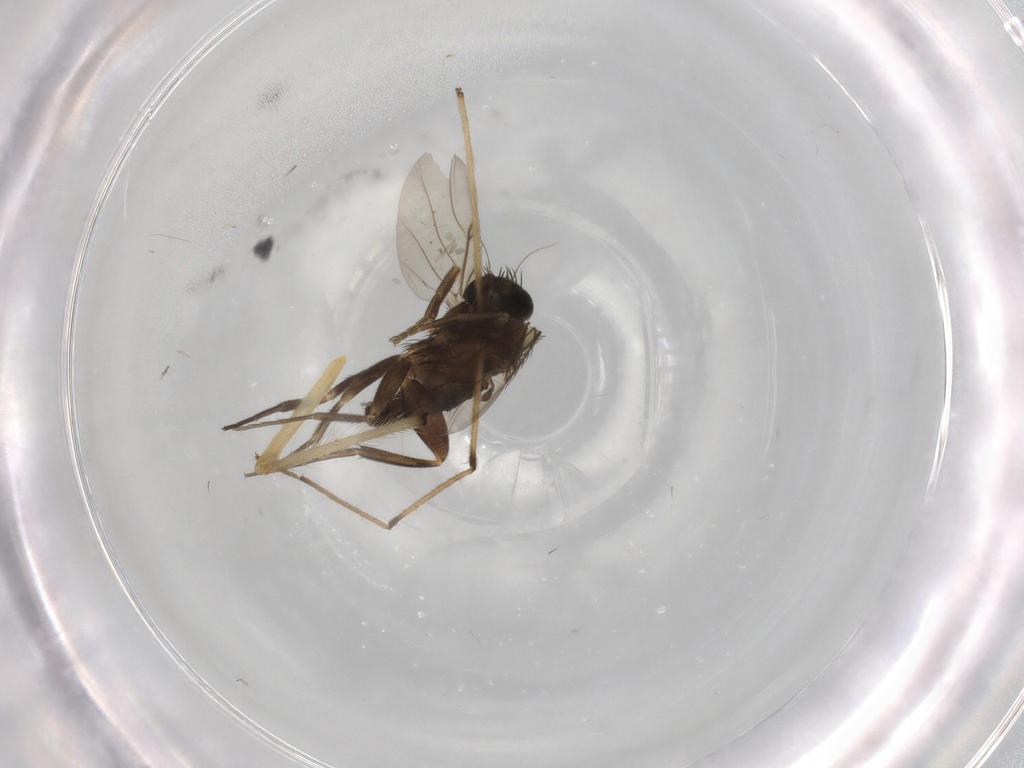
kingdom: Animalia
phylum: Arthropoda
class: Insecta
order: Diptera
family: Phoridae
